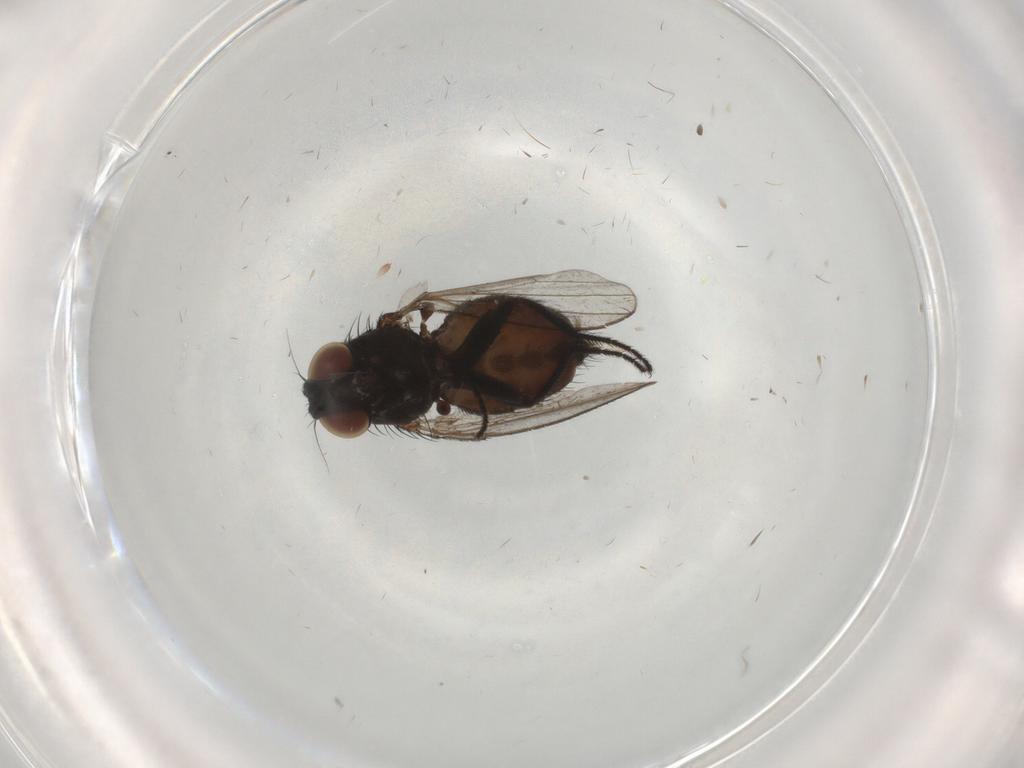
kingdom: Animalia
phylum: Arthropoda
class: Insecta
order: Diptera
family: Milichiidae
